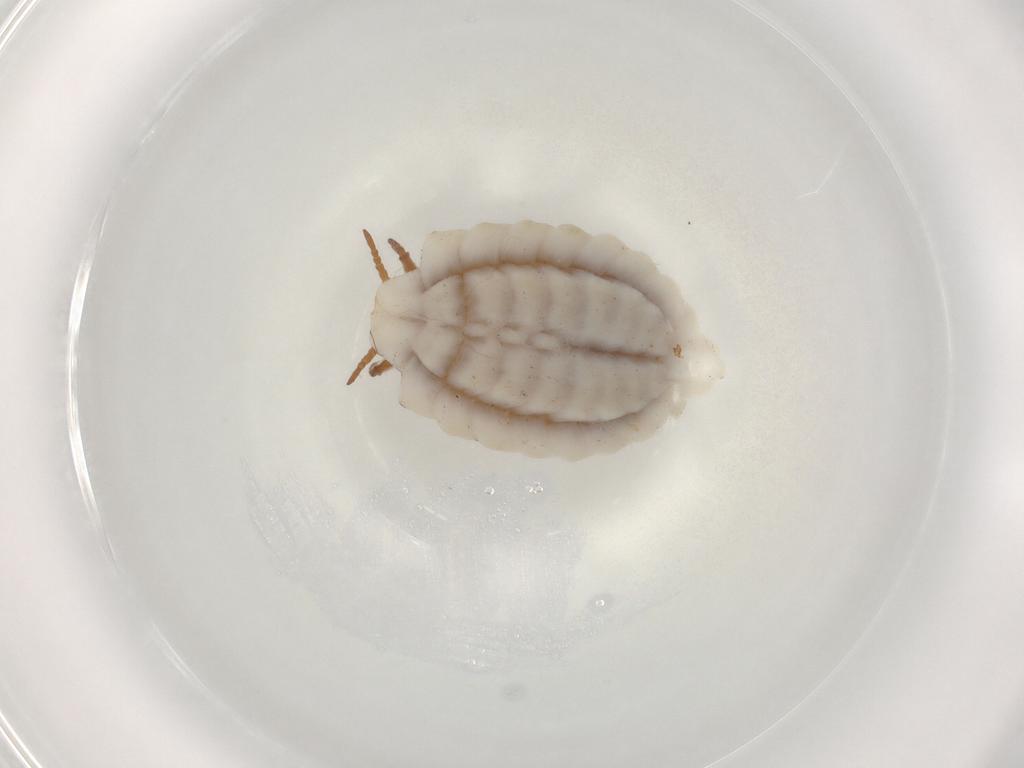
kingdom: Animalia
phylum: Arthropoda
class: Insecta
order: Hemiptera
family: Ortheziidae
